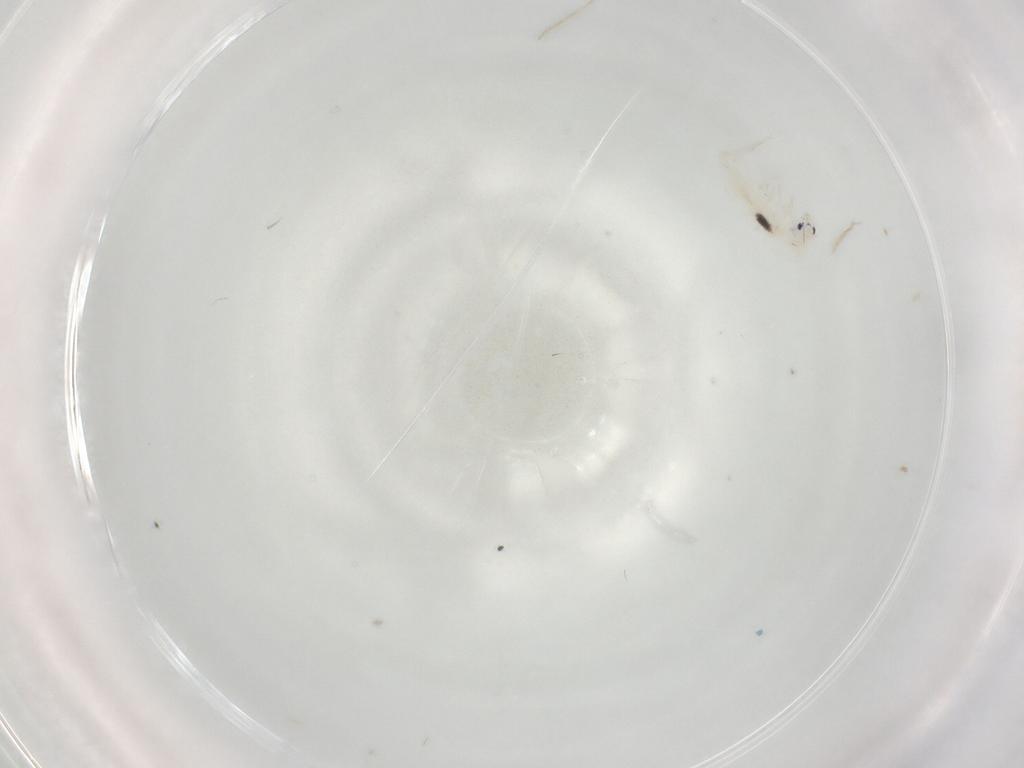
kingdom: Animalia
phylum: Arthropoda
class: Collembola
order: Entomobryomorpha
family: Entomobryidae
